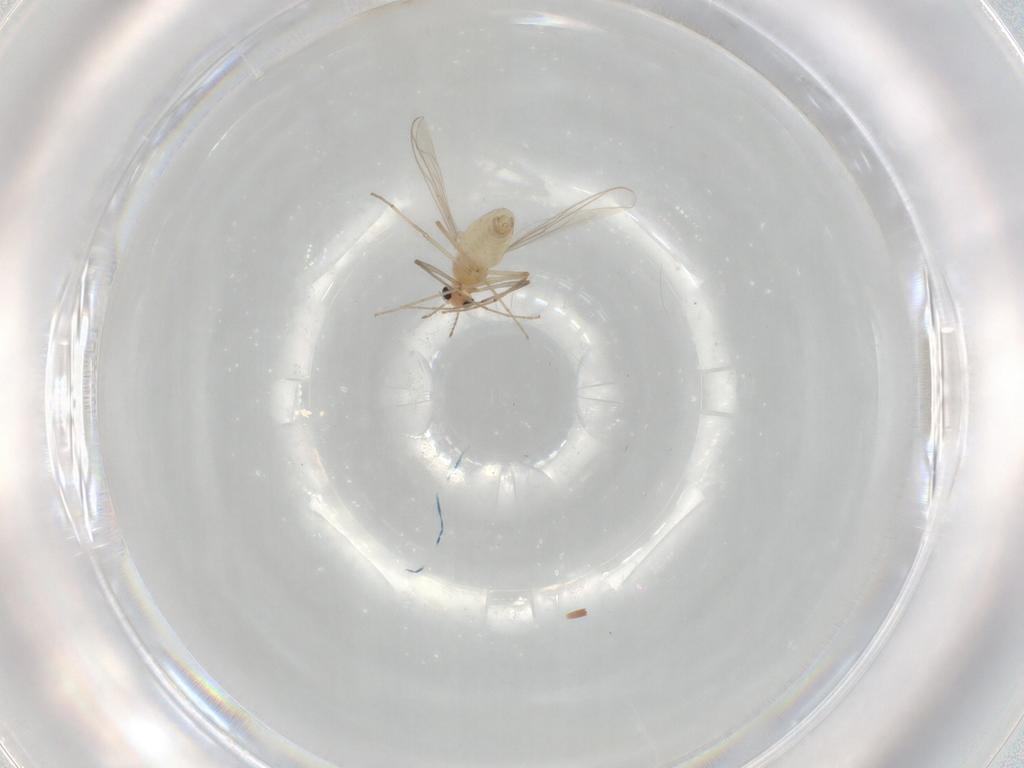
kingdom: Animalia
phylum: Arthropoda
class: Insecta
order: Diptera
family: Chironomidae
